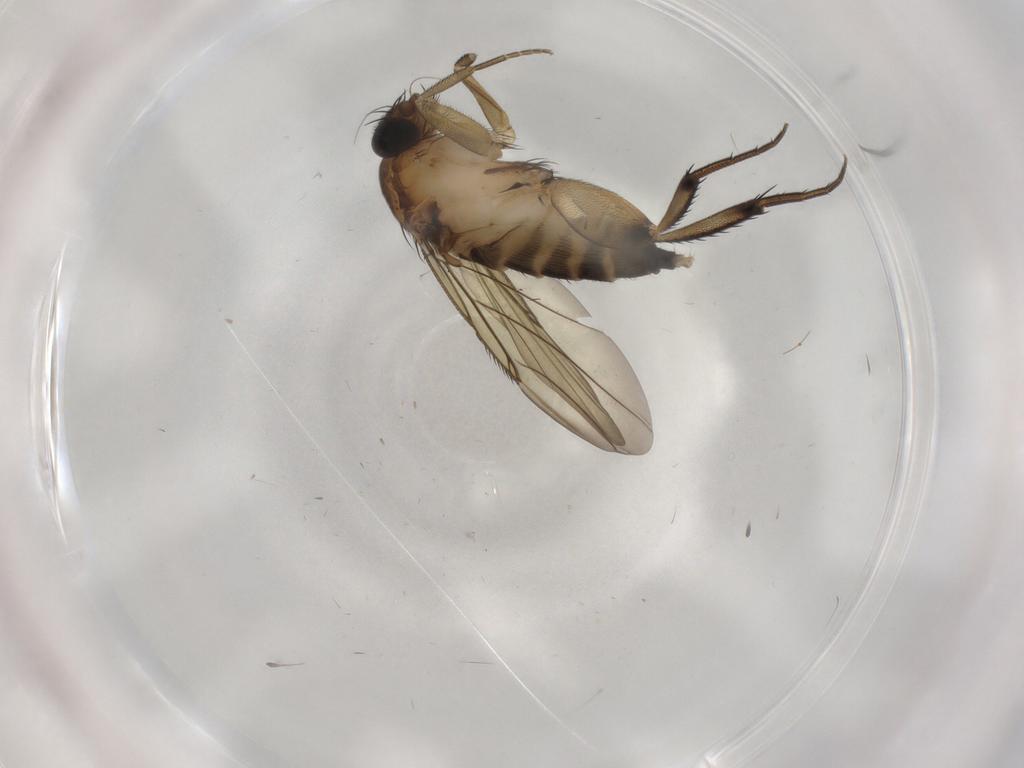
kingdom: Animalia
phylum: Arthropoda
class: Insecta
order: Diptera
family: Phoridae
